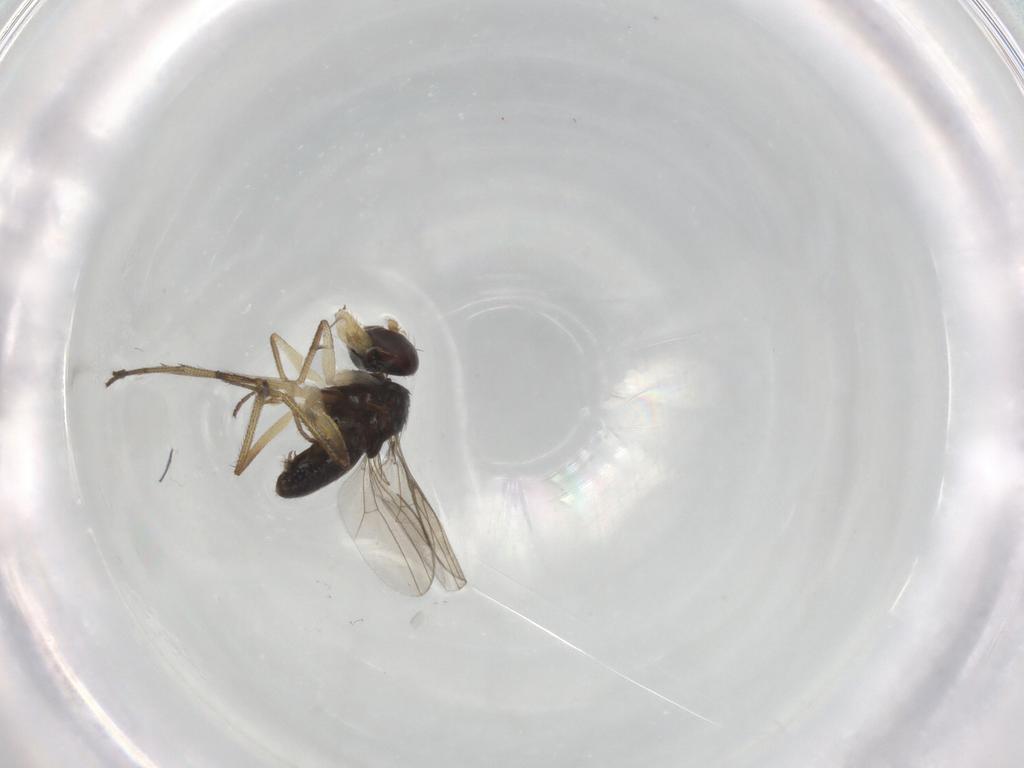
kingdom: Animalia
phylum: Arthropoda
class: Insecta
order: Diptera
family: Dolichopodidae
